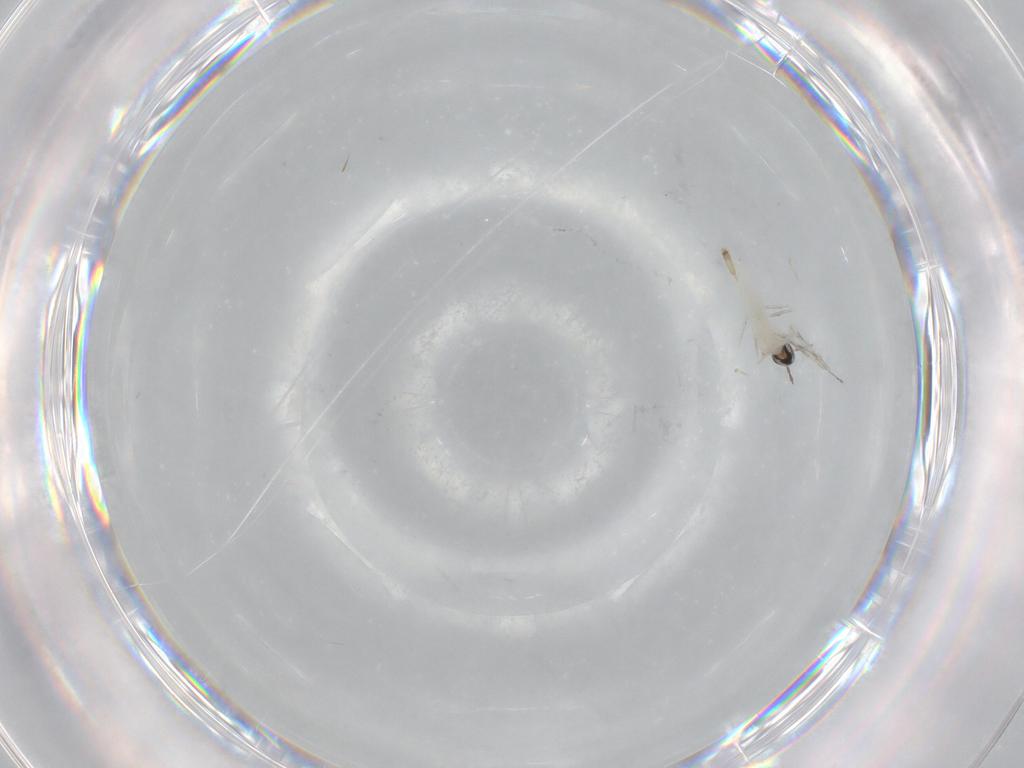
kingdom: Animalia
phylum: Arthropoda
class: Insecta
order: Diptera
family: Cecidomyiidae
